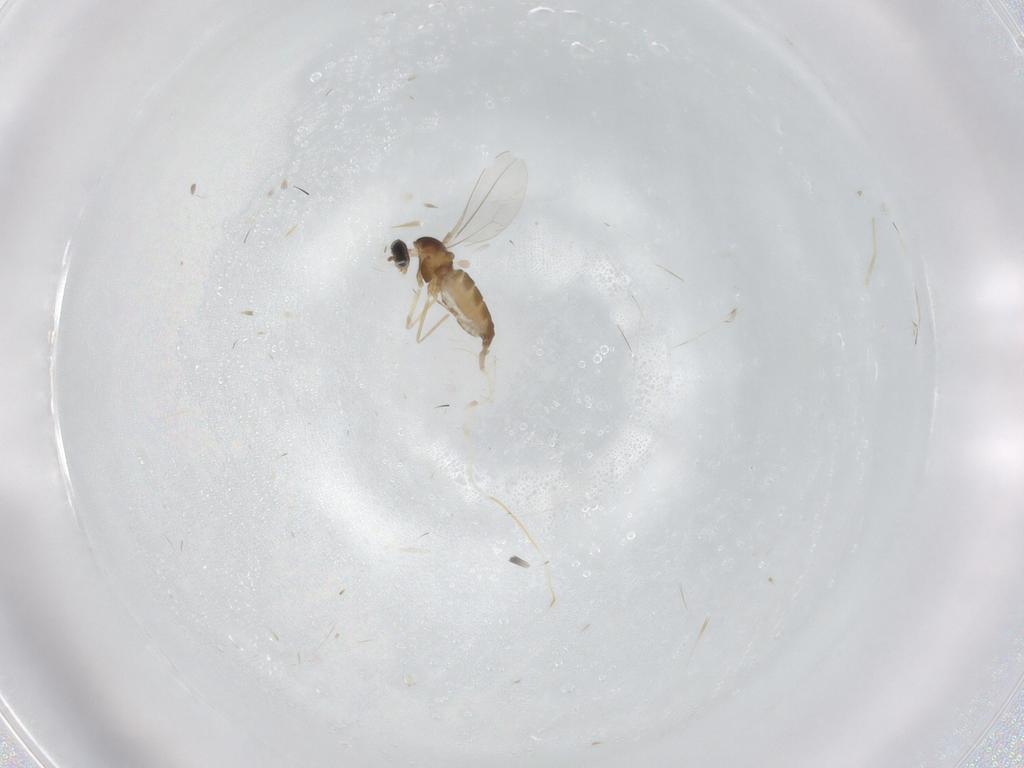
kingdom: Animalia
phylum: Arthropoda
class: Insecta
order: Diptera
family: Cecidomyiidae
